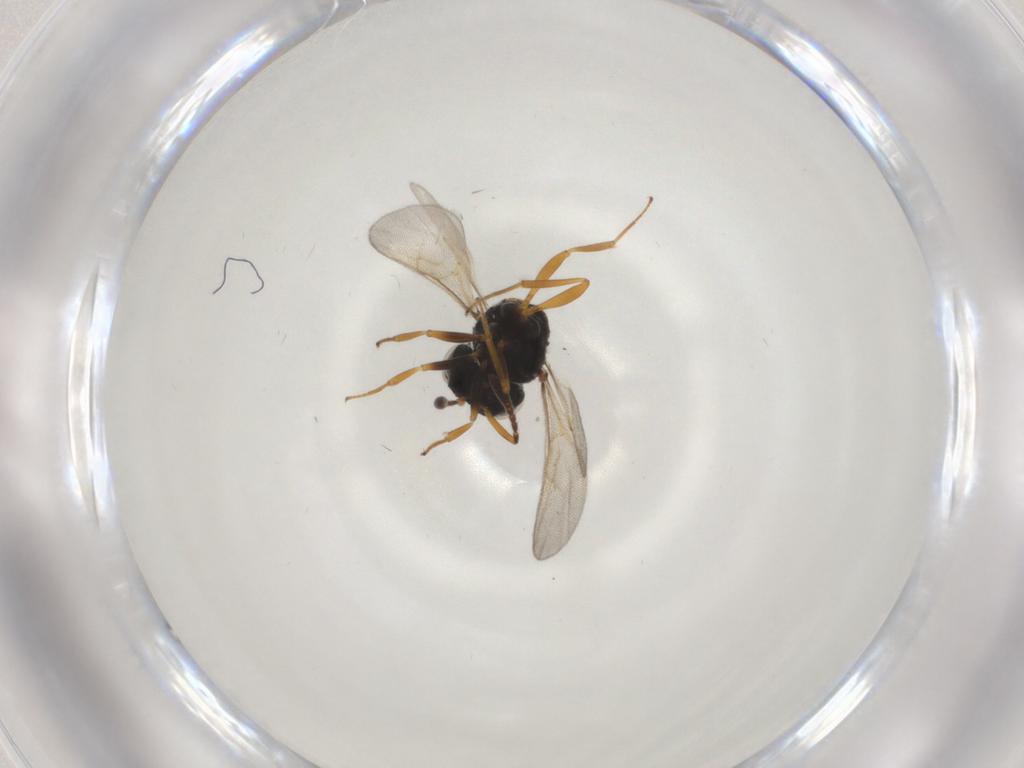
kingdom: Animalia
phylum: Arthropoda
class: Insecta
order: Hymenoptera
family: Scelionidae
